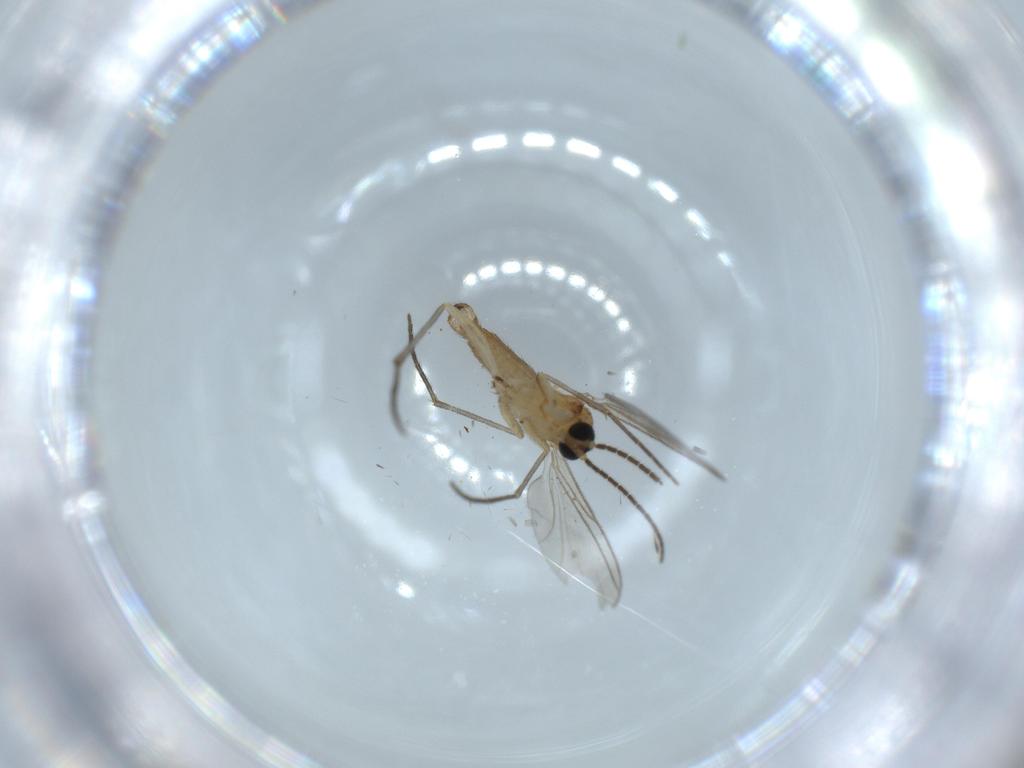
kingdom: Animalia
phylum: Arthropoda
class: Insecta
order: Diptera
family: Sciaridae
